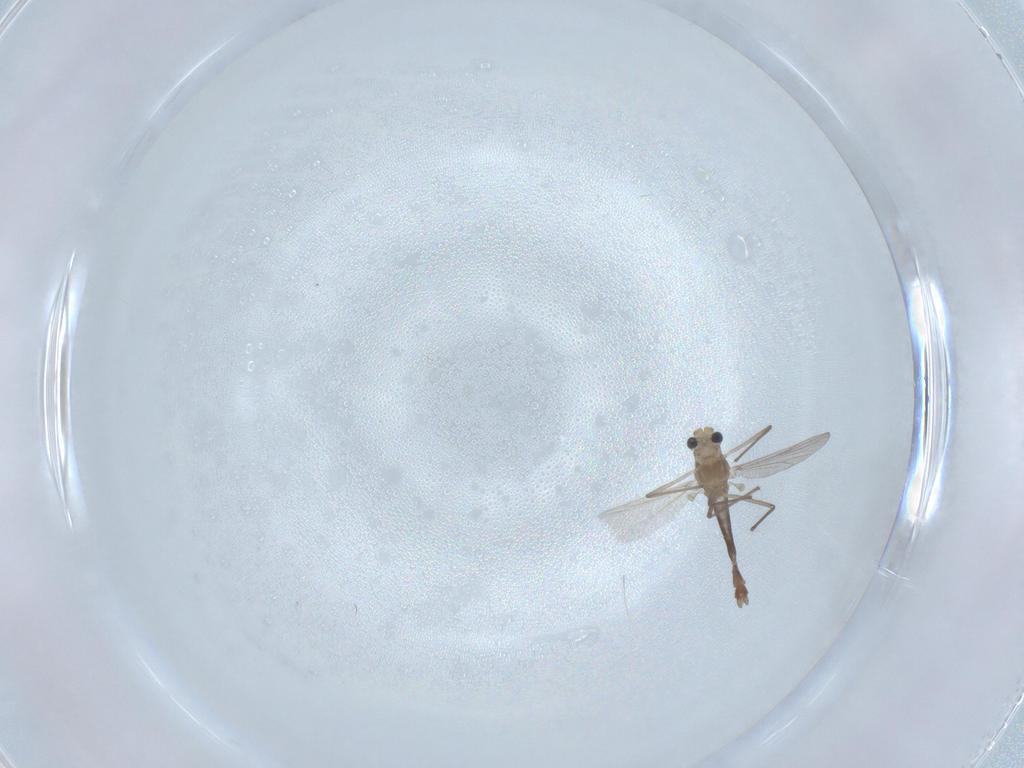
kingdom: Animalia
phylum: Arthropoda
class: Insecta
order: Diptera
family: Chironomidae
